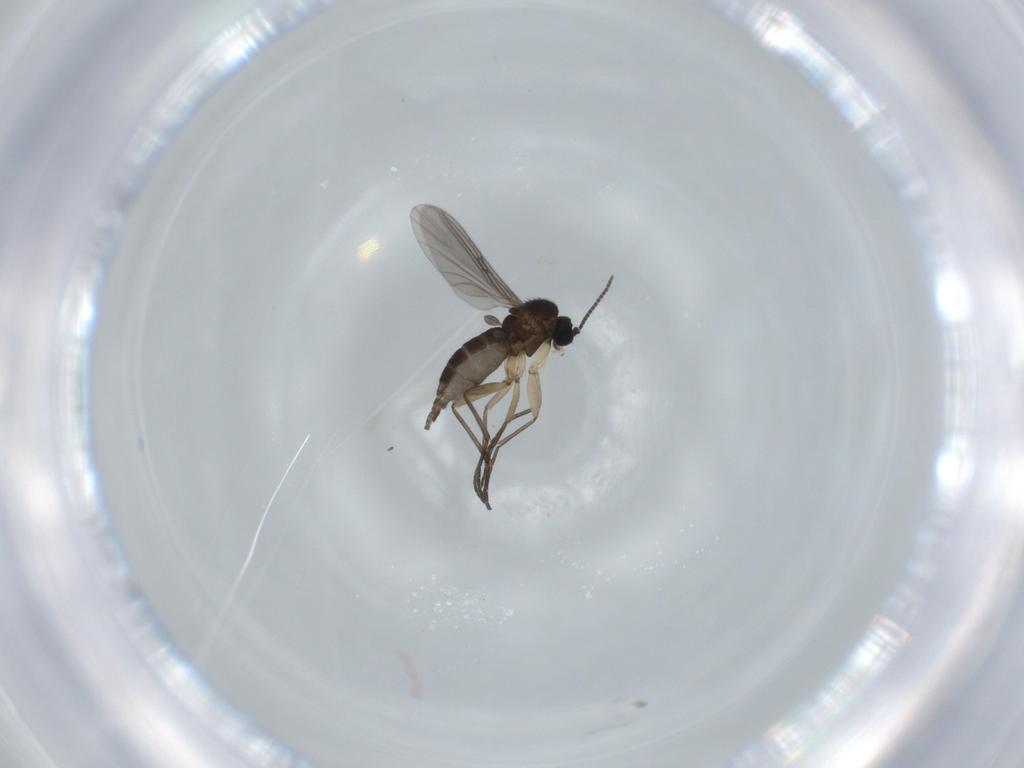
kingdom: Animalia
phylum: Arthropoda
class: Insecta
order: Diptera
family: Sciaridae
